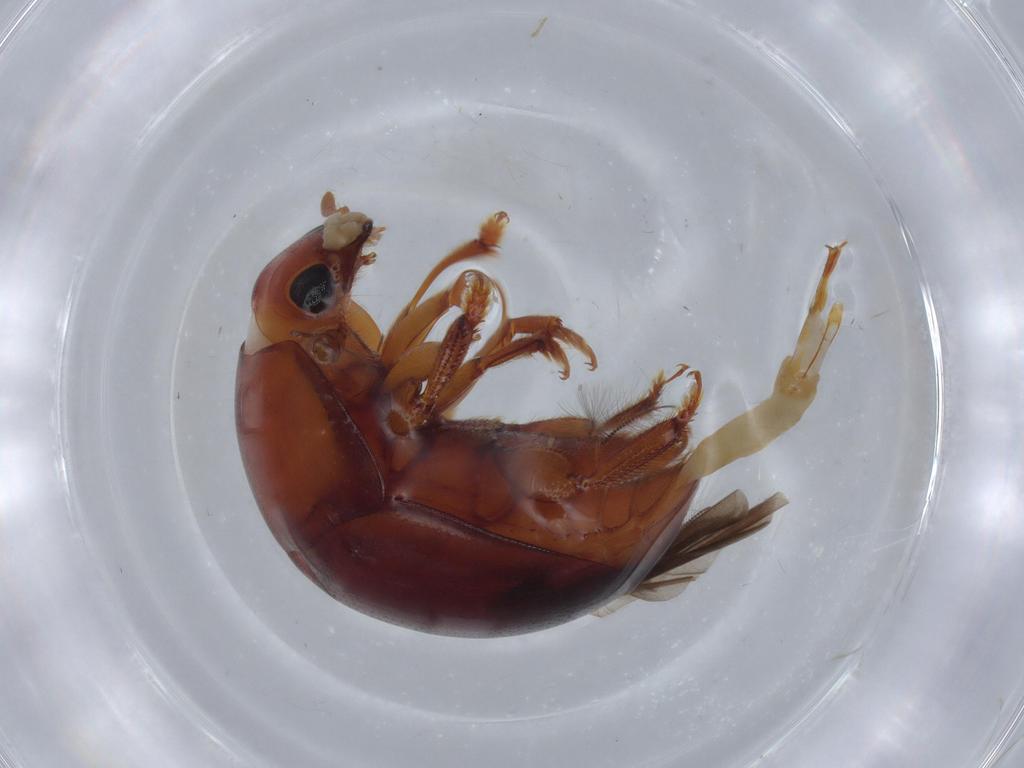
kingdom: Animalia
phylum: Arthropoda
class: Insecta
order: Coleoptera
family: Nitidulidae
